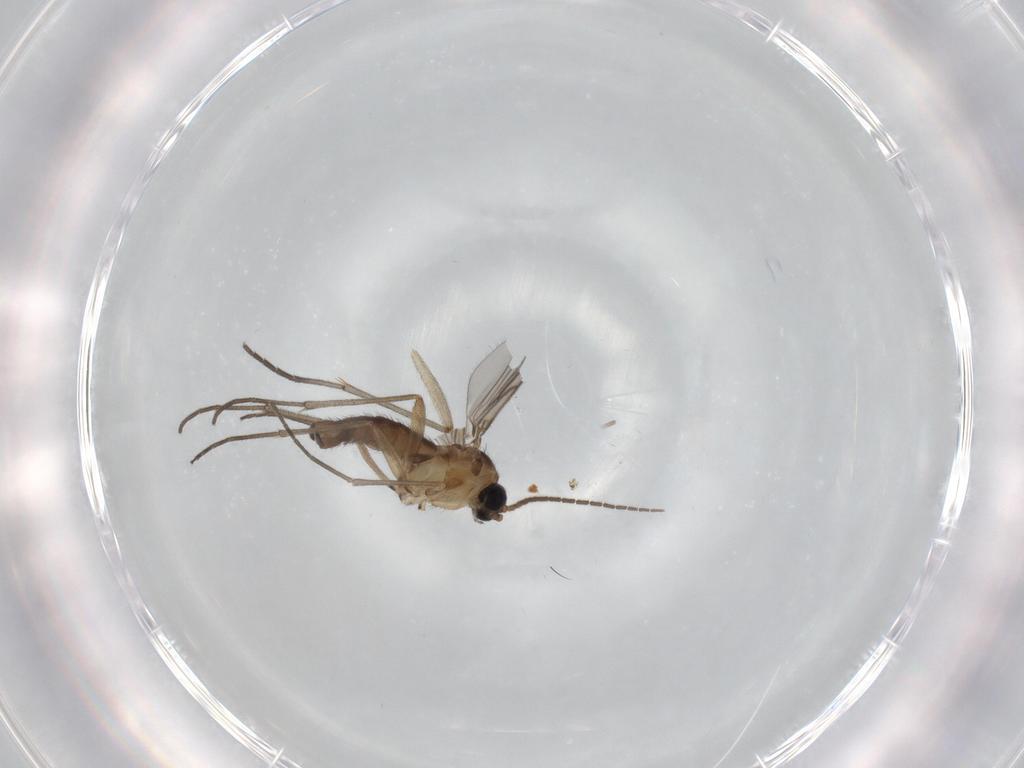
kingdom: Animalia
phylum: Arthropoda
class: Insecta
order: Diptera
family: Sciaridae
